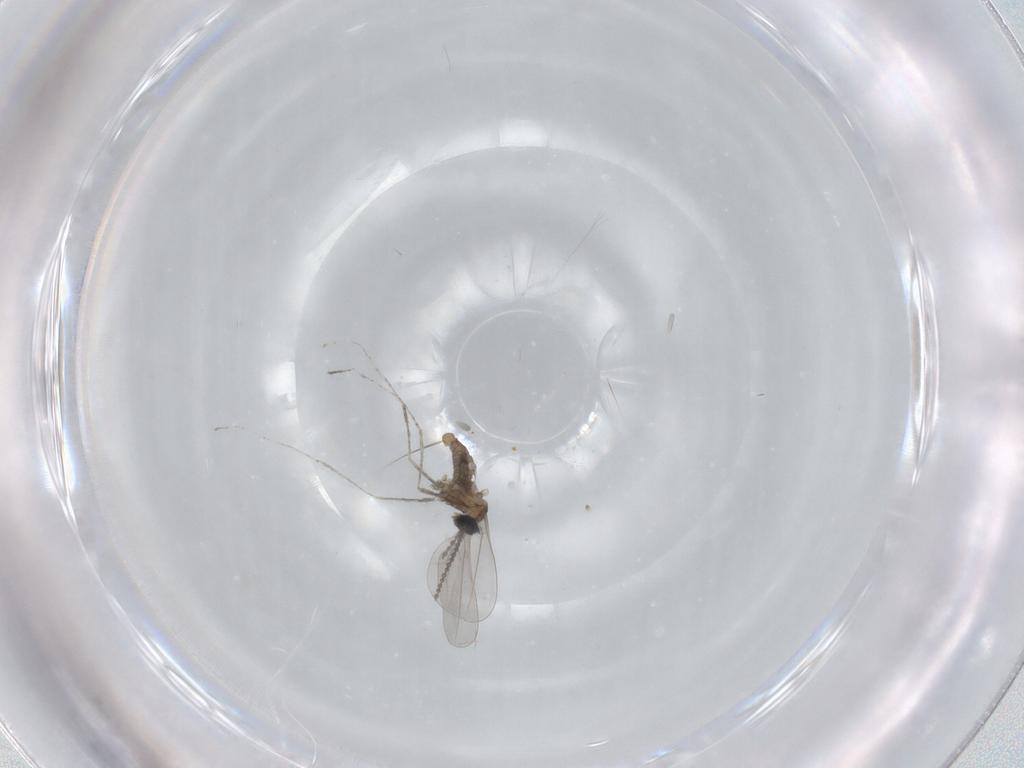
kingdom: Animalia
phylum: Arthropoda
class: Insecta
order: Diptera
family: Cecidomyiidae
